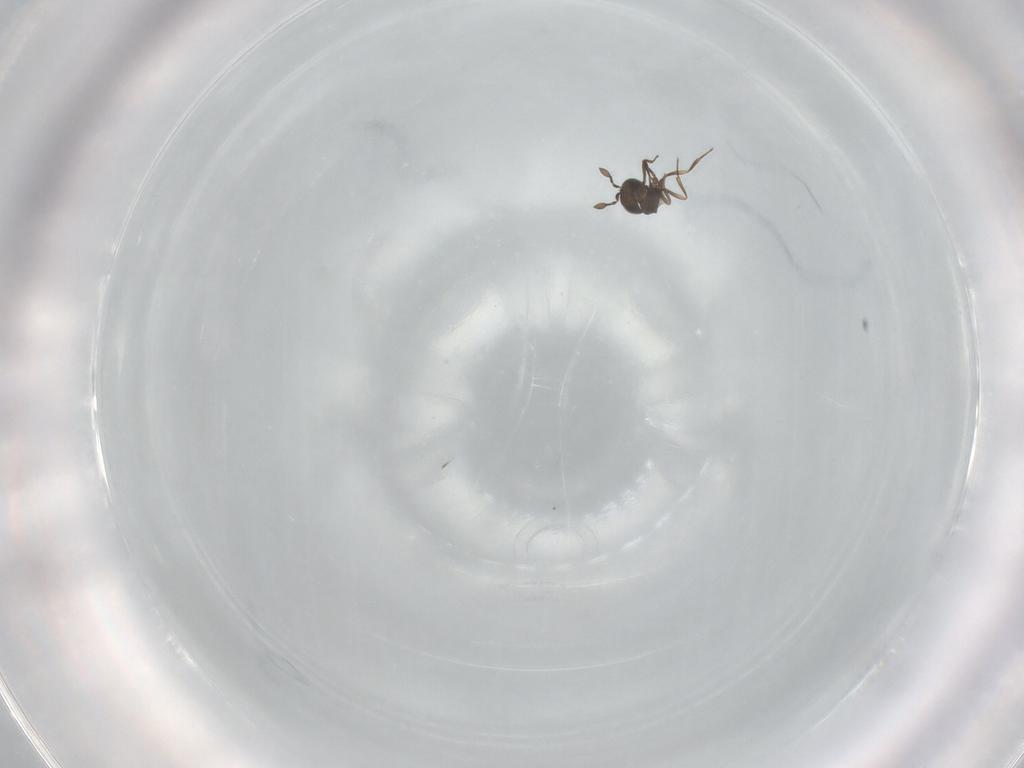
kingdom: Animalia
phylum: Arthropoda
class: Insecta
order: Hymenoptera
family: Scelionidae
